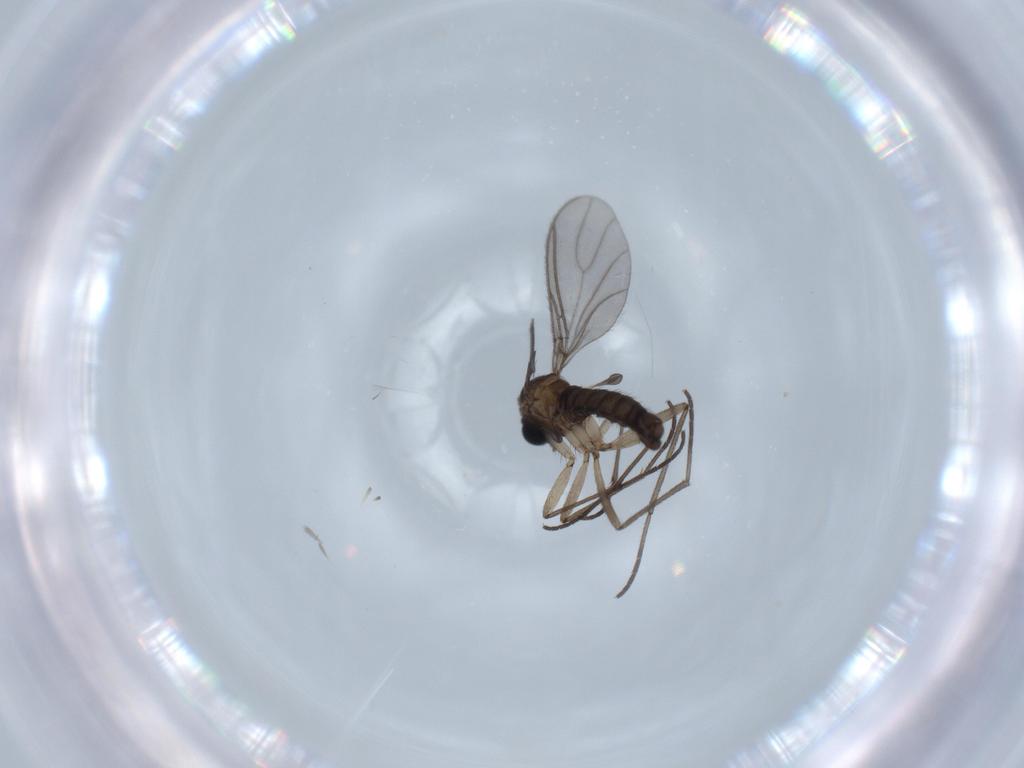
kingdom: Animalia
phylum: Arthropoda
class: Insecta
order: Diptera
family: Sciaridae
